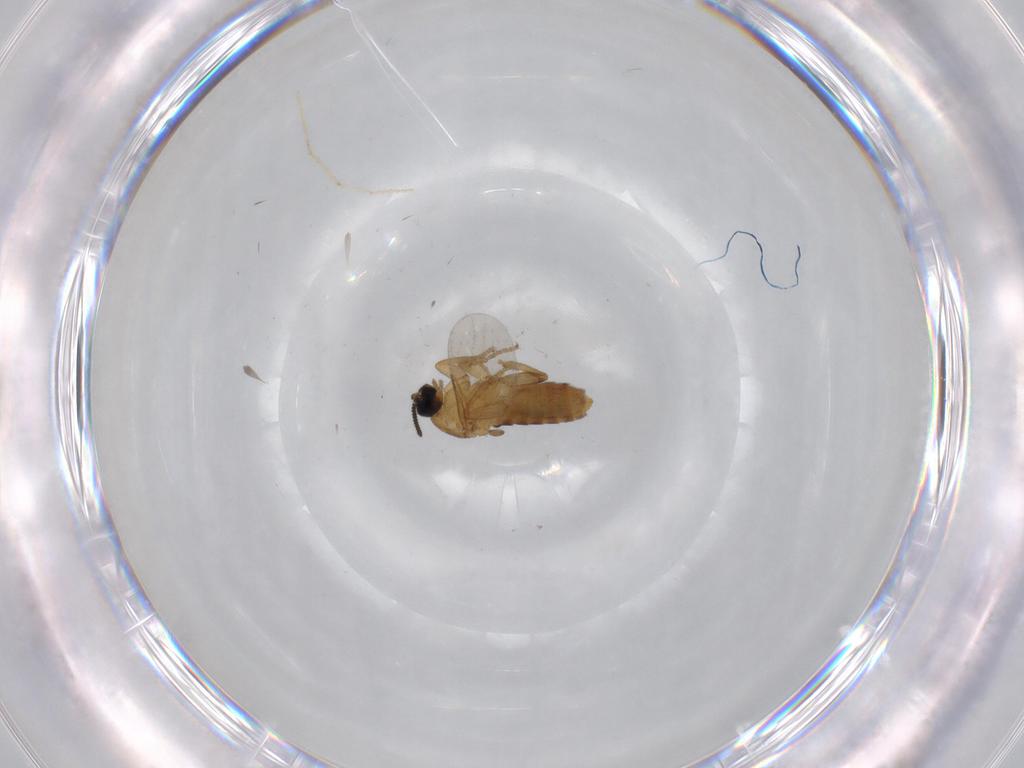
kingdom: Animalia
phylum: Arthropoda
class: Insecta
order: Diptera
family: Scatopsidae
